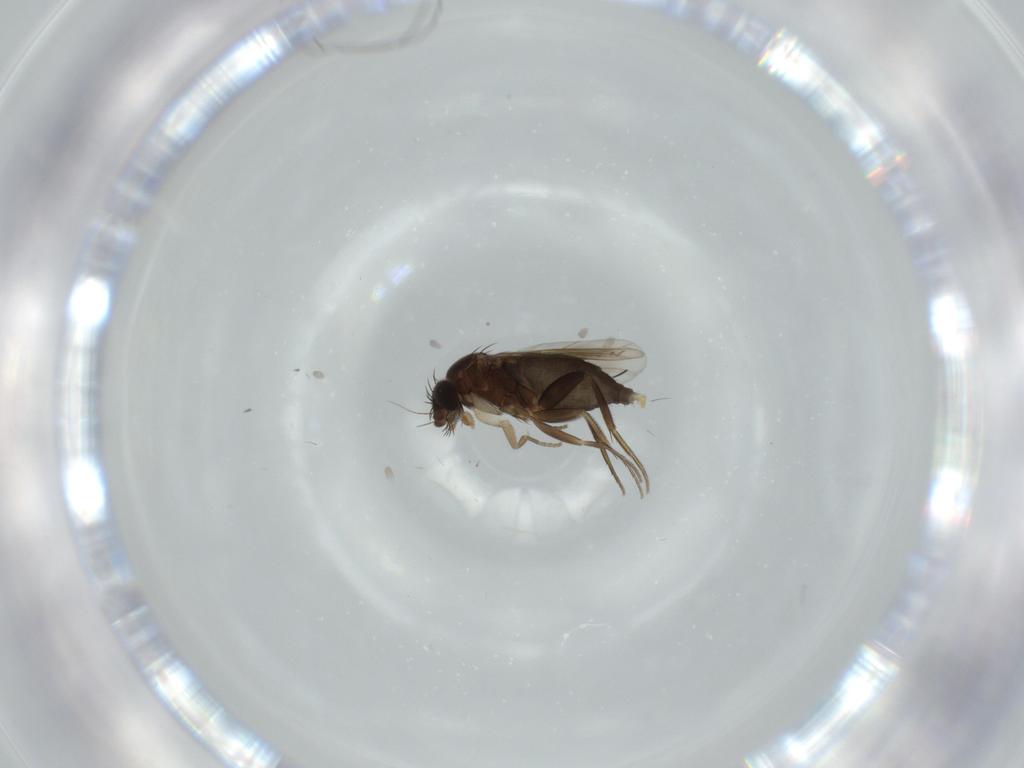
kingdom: Animalia
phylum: Arthropoda
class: Insecta
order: Diptera
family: Phoridae
